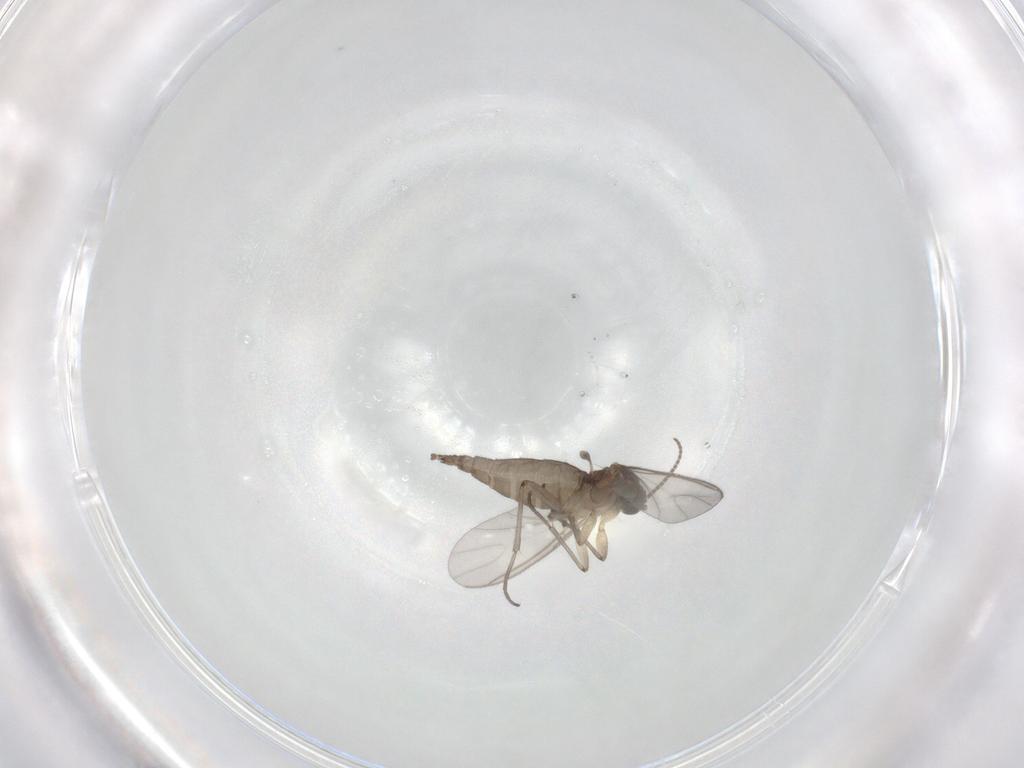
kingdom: Animalia
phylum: Arthropoda
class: Insecta
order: Diptera
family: Sciaridae
